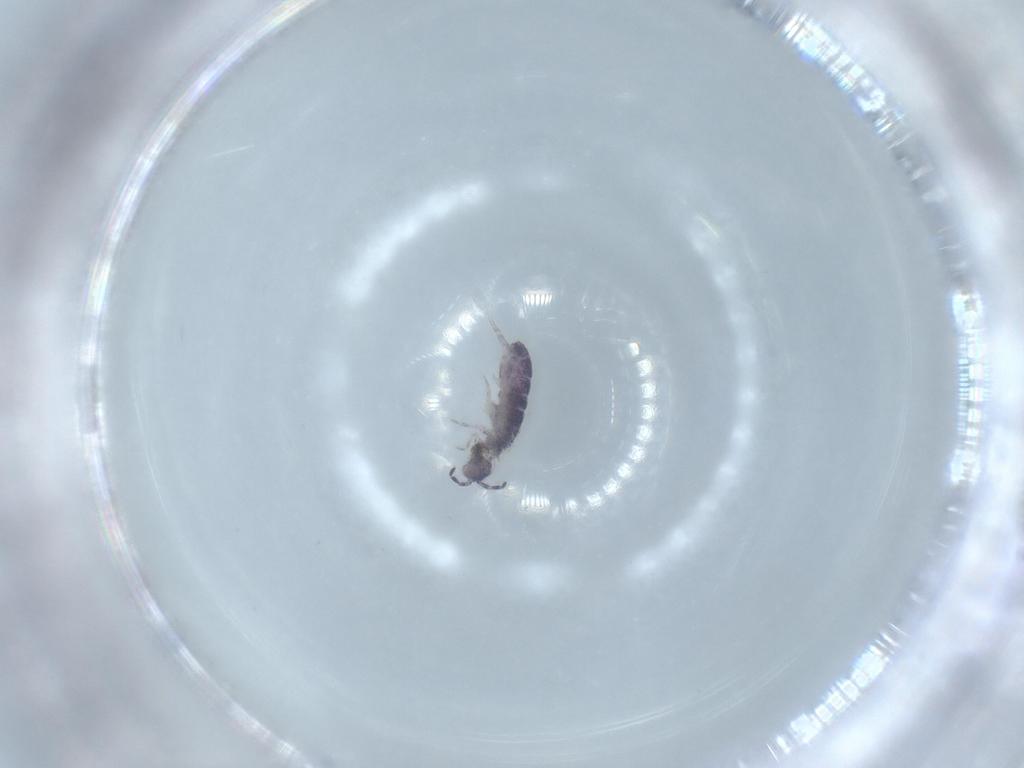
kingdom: Animalia
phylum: Arthropoda
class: Collembola
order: Entomobryomorpha
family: Isotomidae
